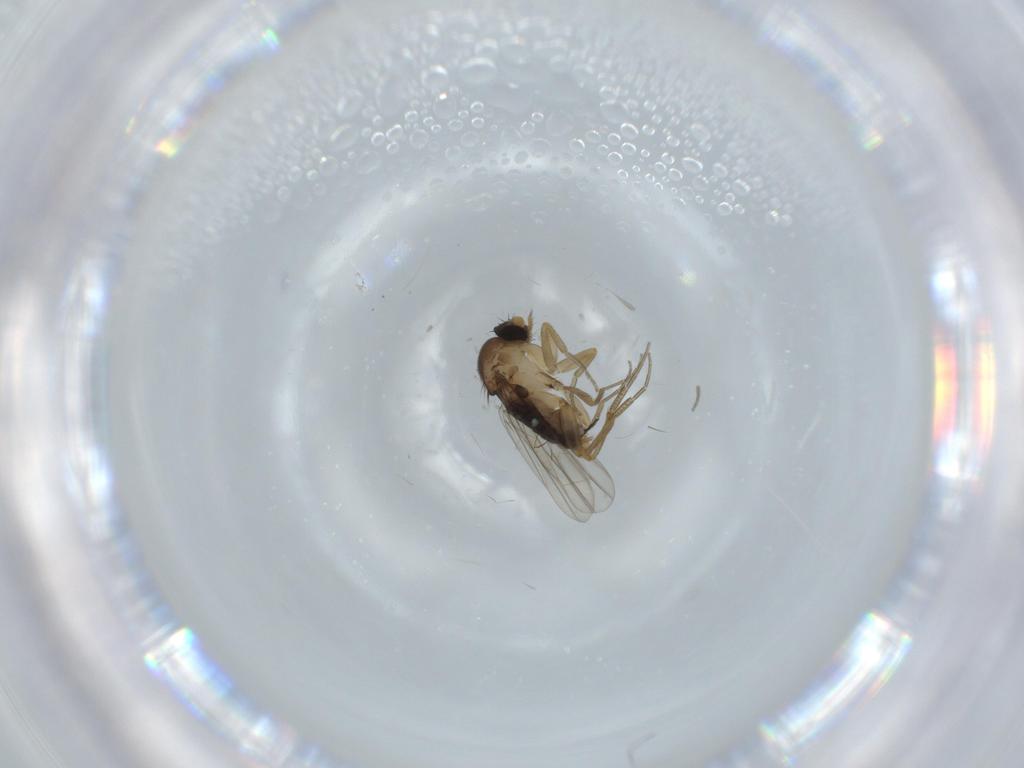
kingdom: Animalia
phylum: Arthropoda
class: Insecta
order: Diptera
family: Phoridae
